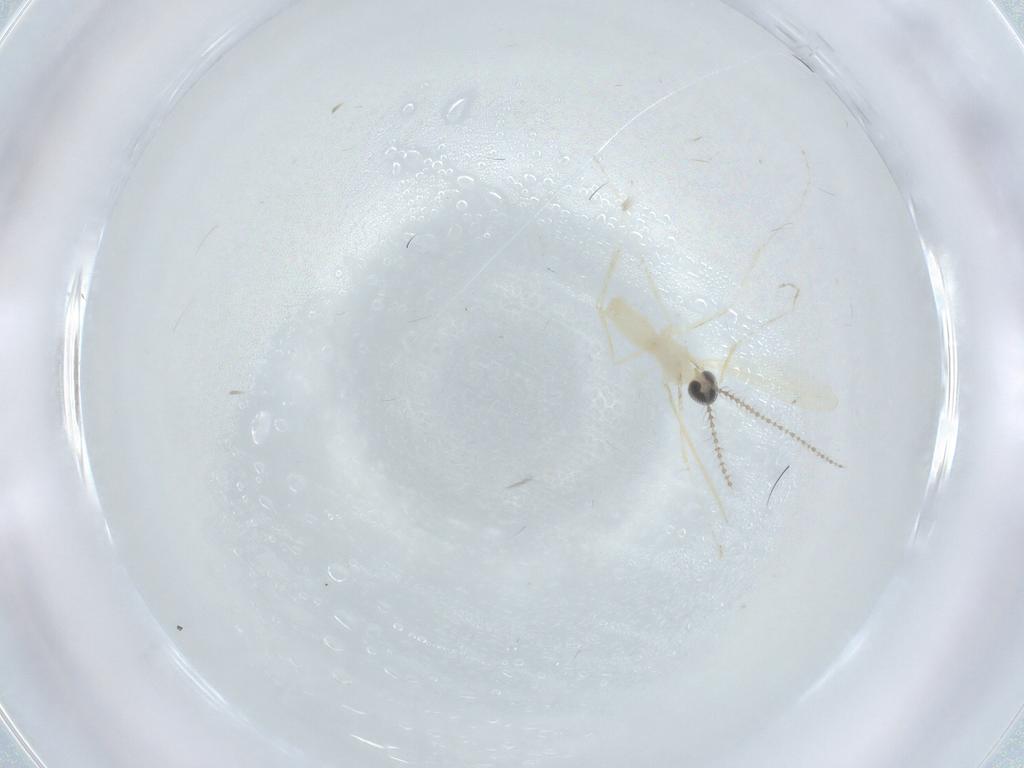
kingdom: Animalia
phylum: Arthropoda
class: Insecta
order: Diptera
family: Cecidomyiidae
